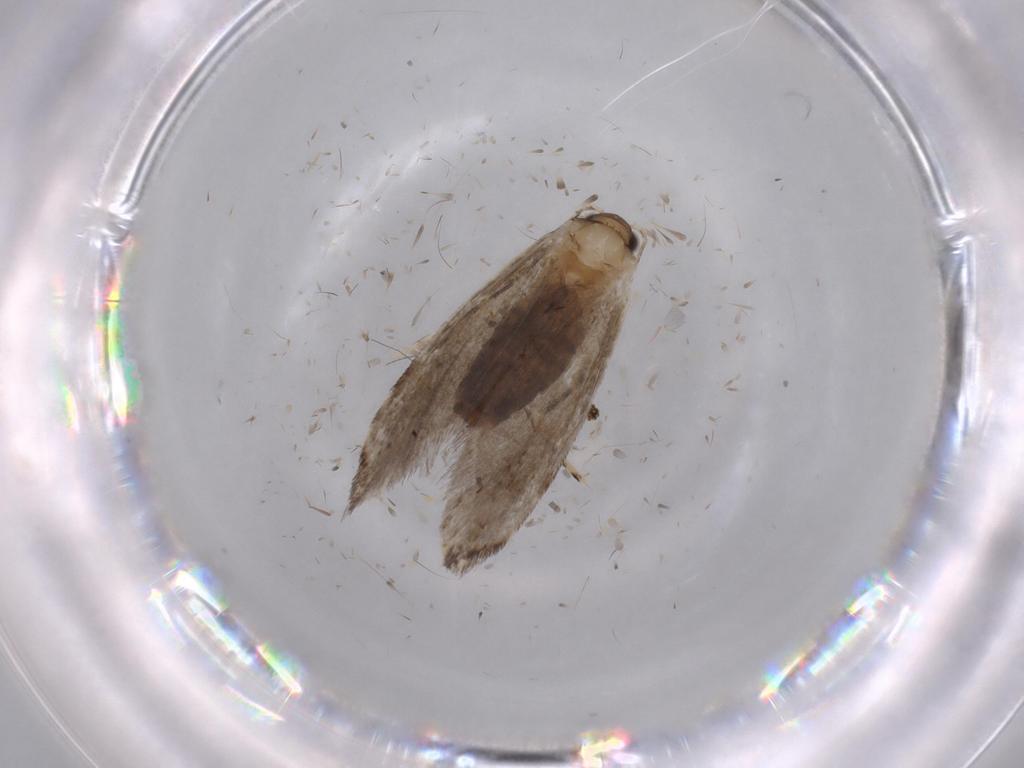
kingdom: Animalia
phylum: Arthropoda
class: Insecta
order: Lepidoptera
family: Tineidae
